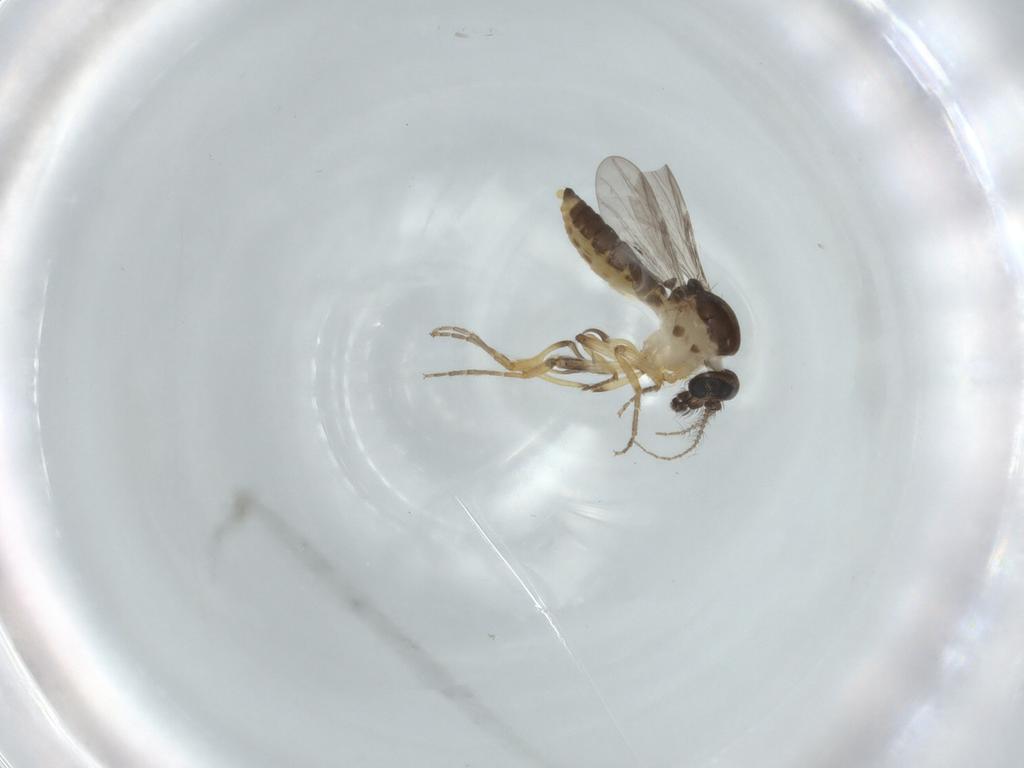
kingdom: Animalia
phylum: Arthropoda
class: Insecta
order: Diptera
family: Ceratopogonidae
